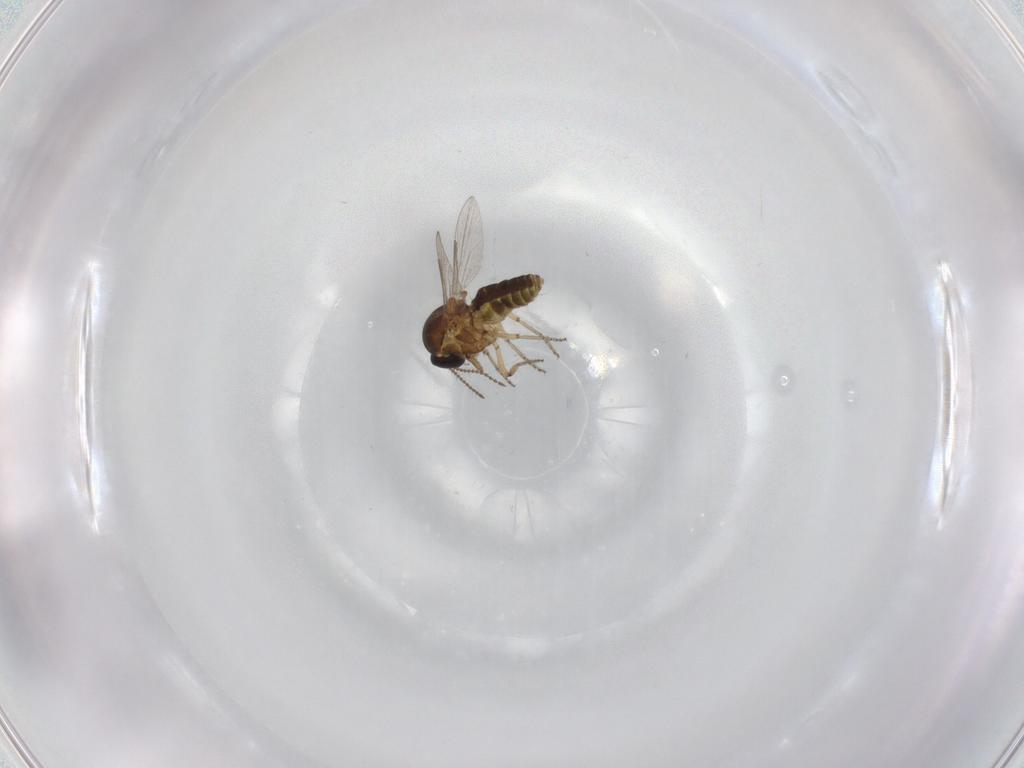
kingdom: Animalia
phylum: Arthropoda
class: Insecta
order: Diptera
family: Ceratopogonidae
